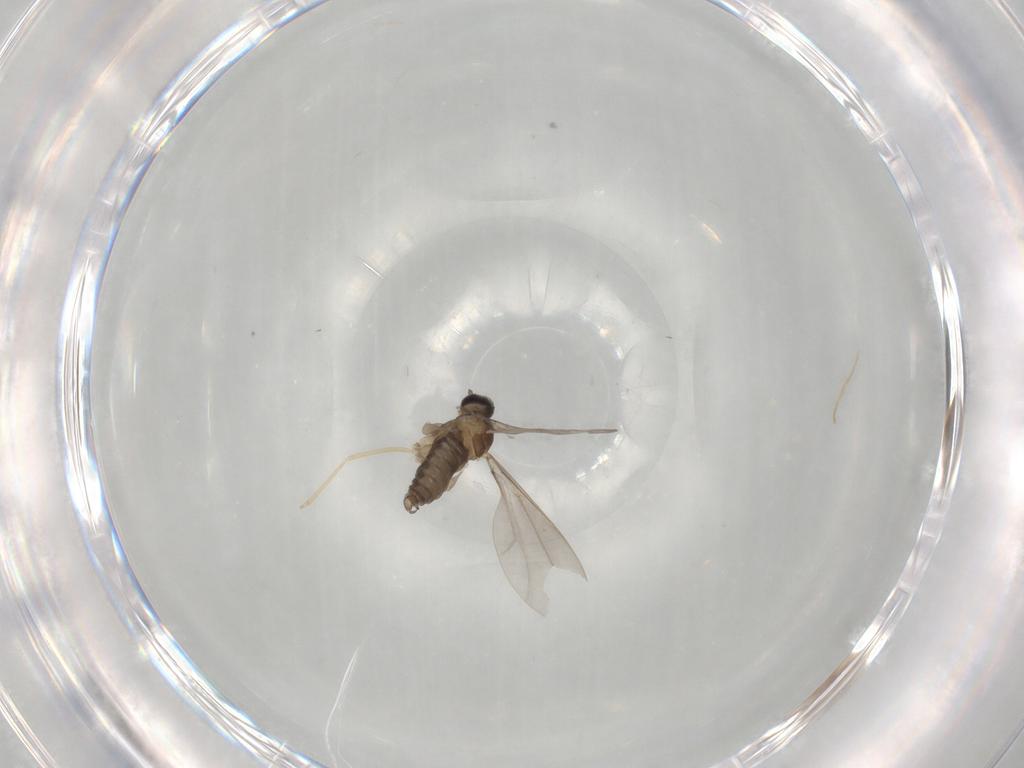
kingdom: Animalia
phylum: Arthropoda
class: Insecta
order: Diptera
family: Cecidomyiidae
